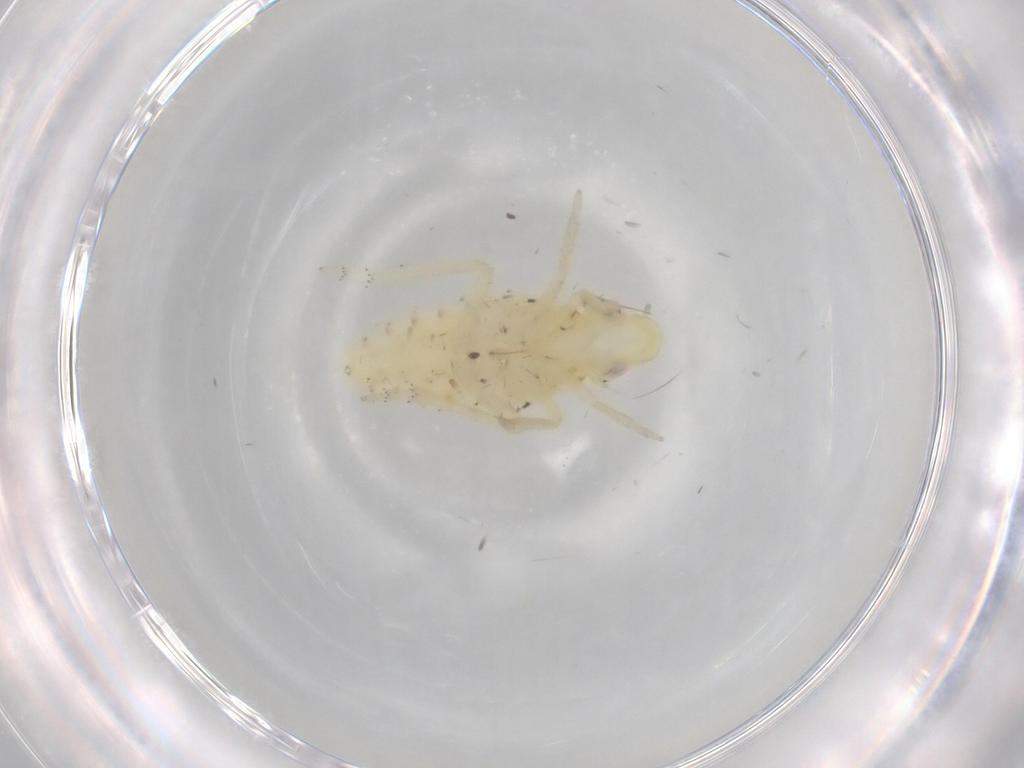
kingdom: Animalia
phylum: Arthropoda
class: Insecta
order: Hemiptera
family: Tropiduchidae
